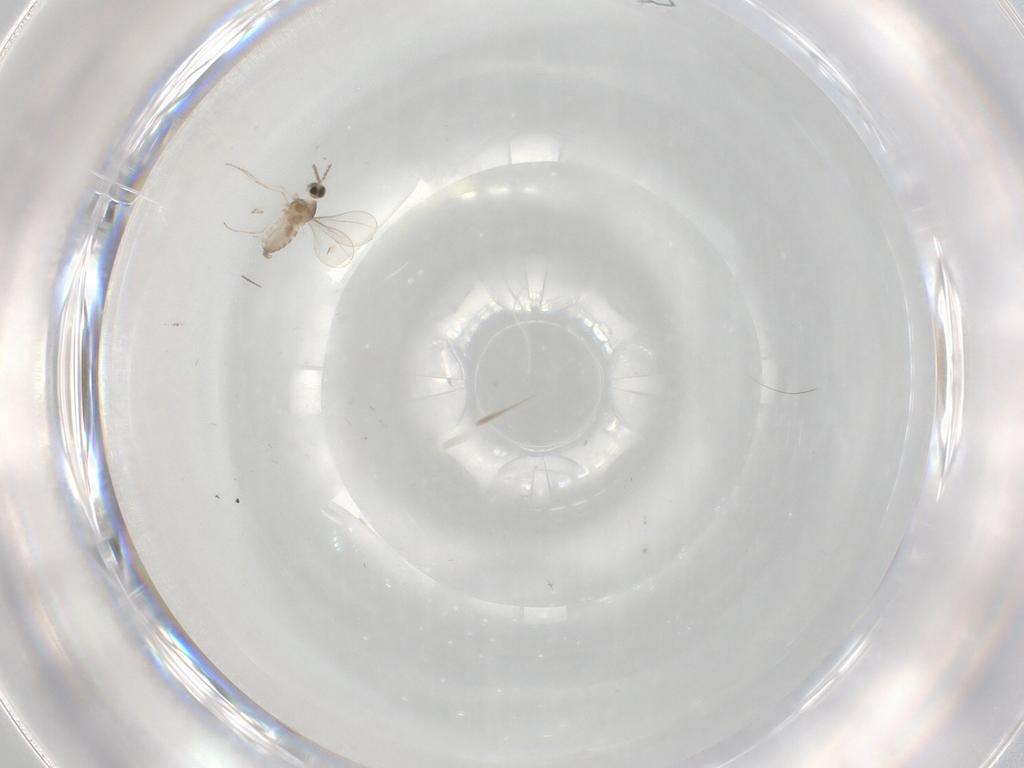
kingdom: Animalia
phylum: Arthropoda
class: Insecta
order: Diptera
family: Cecidomyiidae
